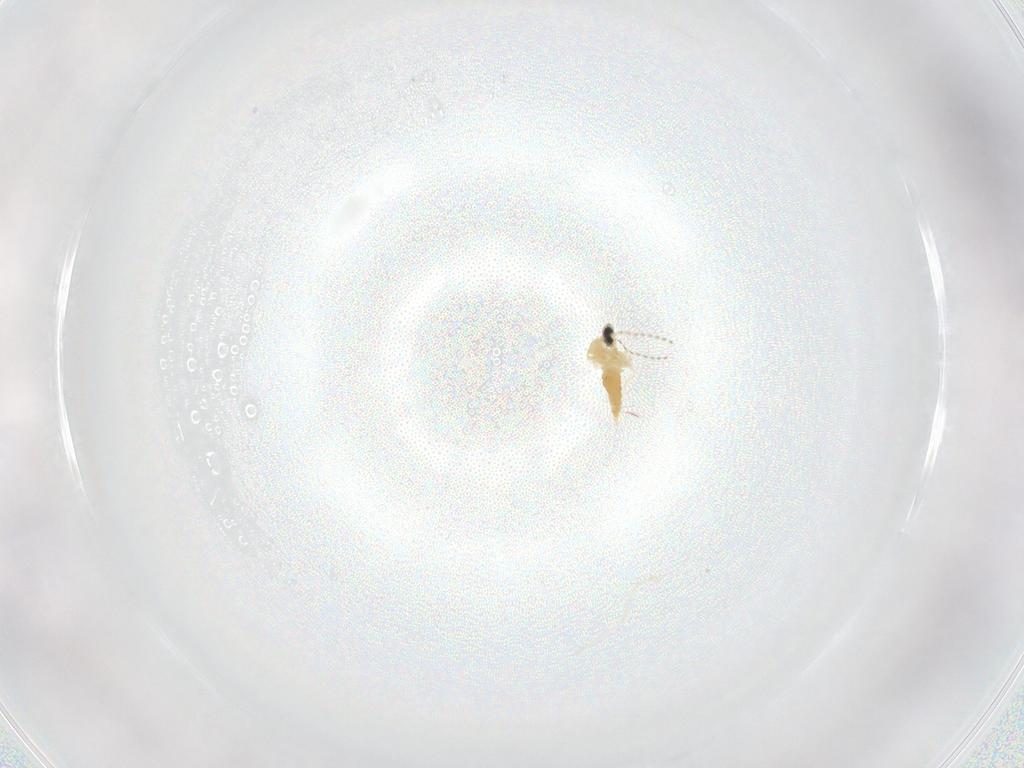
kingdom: Animalia
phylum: Arthropoda
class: Insecta
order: Diptera
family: Cecidomyiidae
